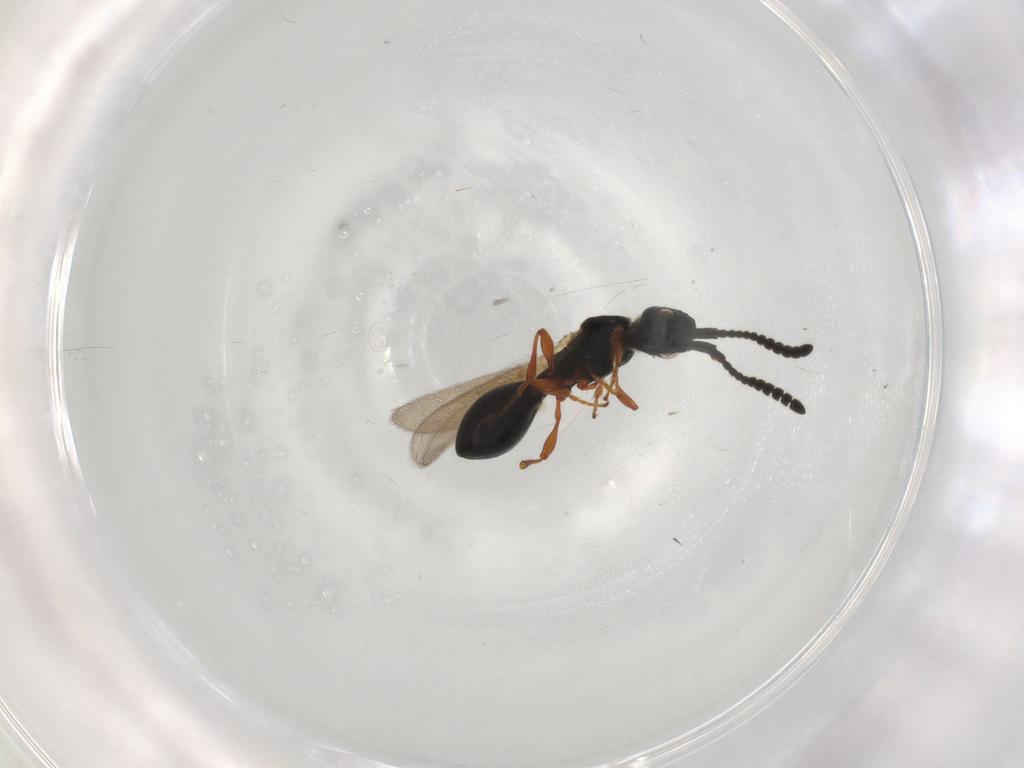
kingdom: Animalia
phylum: Arthropoda
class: Insecta
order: Hymenoptera
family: Diapriidae
